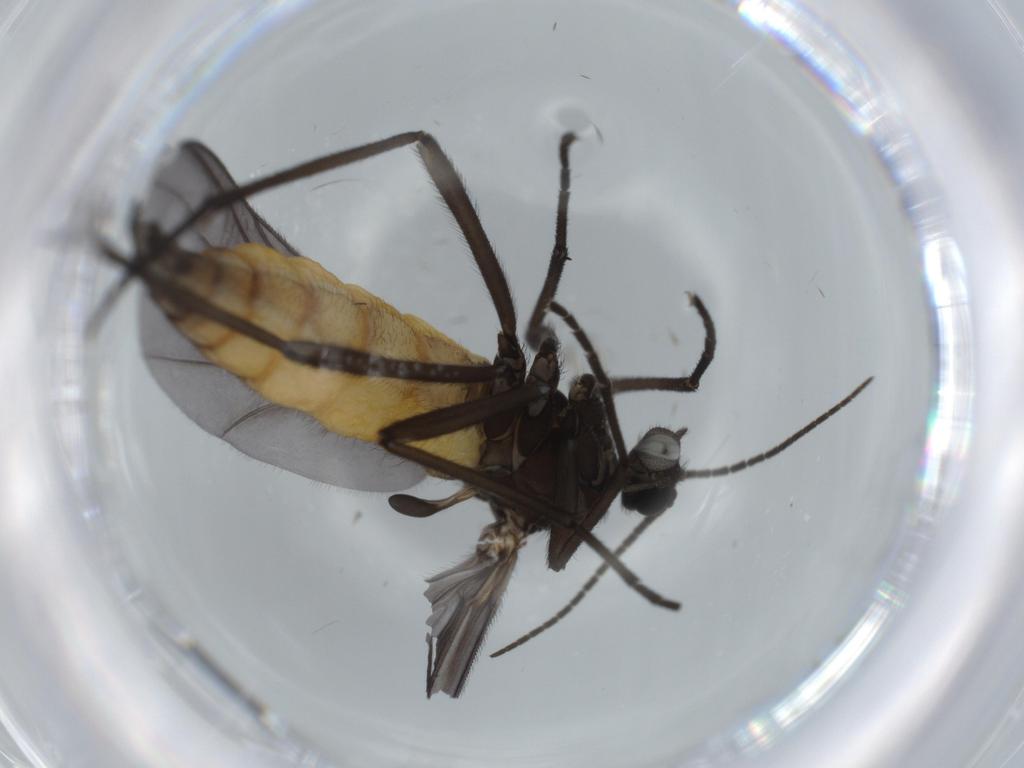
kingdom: Animalia
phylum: Arthropoda
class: Insecta
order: Diptera
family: Cecidomyiidae
